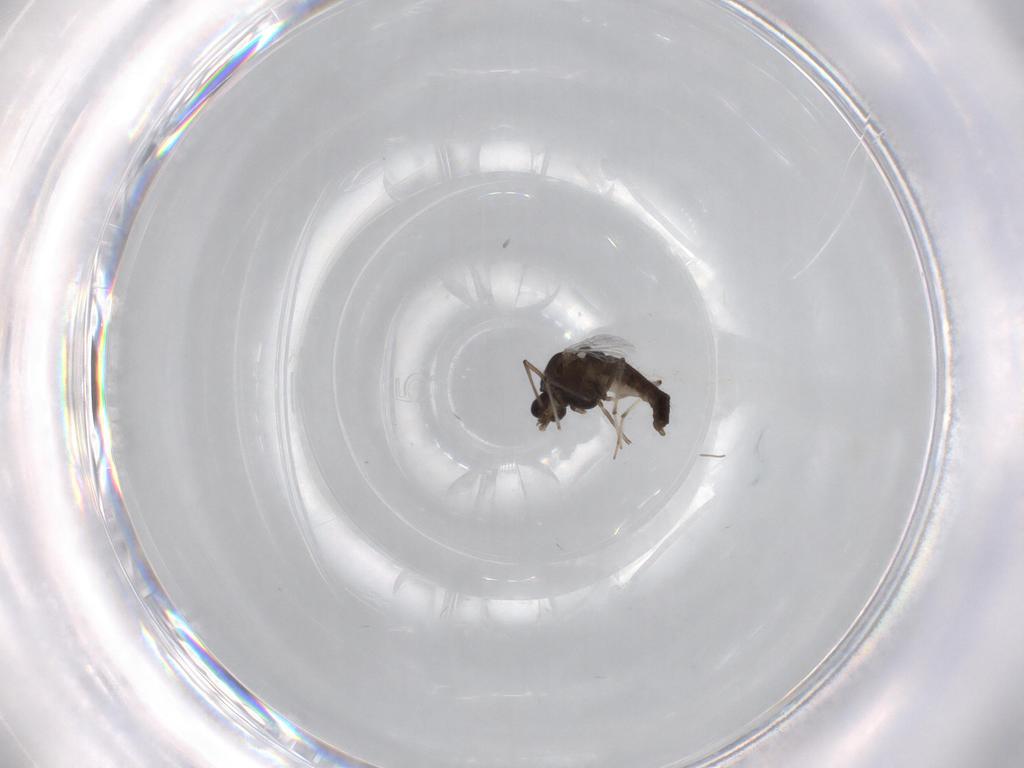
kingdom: Animalia
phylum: Arthropoda
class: Insecta
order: Diptera
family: Chironomidae
